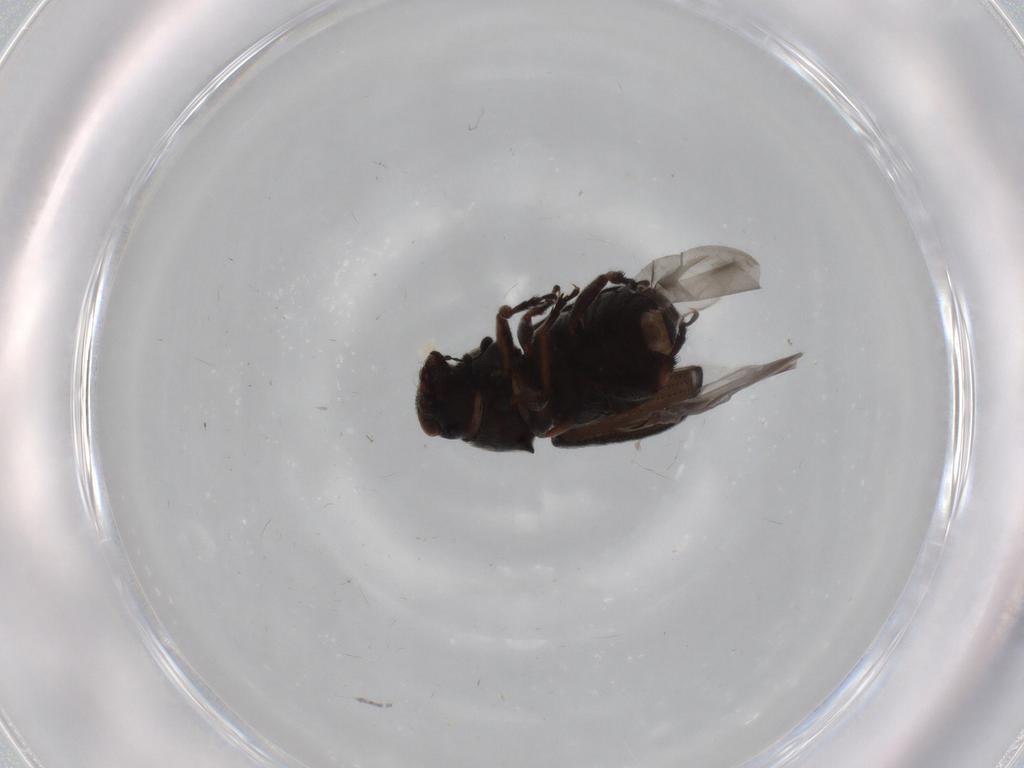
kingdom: Animalia
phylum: Arthropoda
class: Insecta
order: Coleoptera
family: Anthribidae
